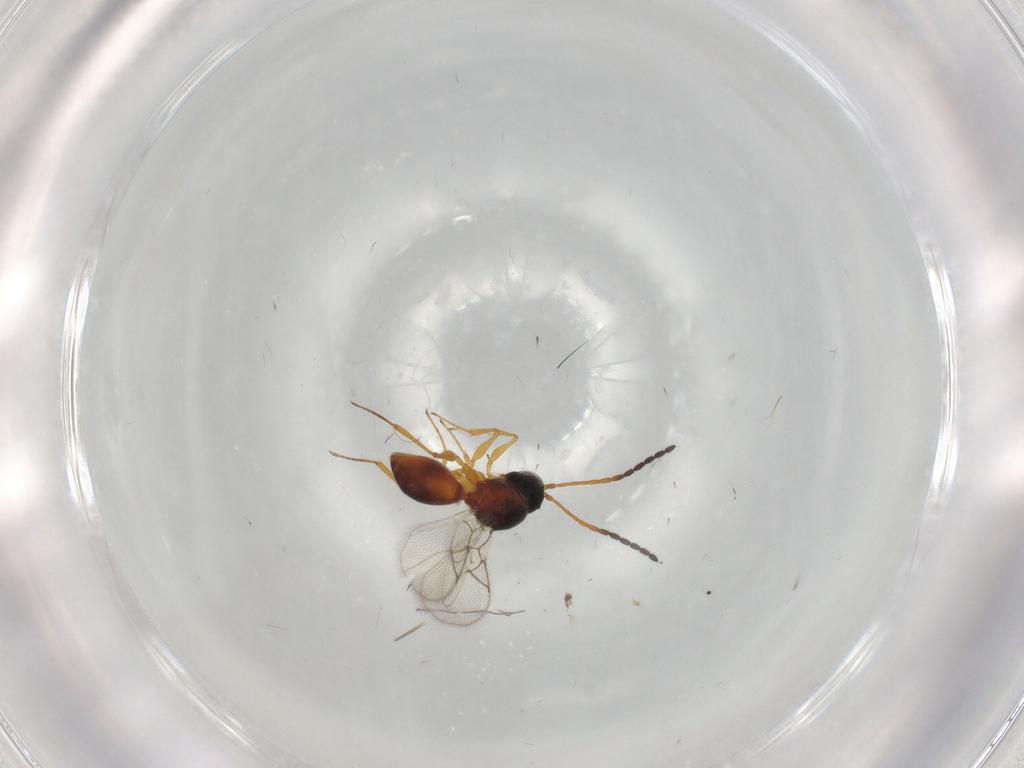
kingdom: Animalia
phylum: Arthropoda
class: Insecta
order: Hymenoptera
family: Figitidae
